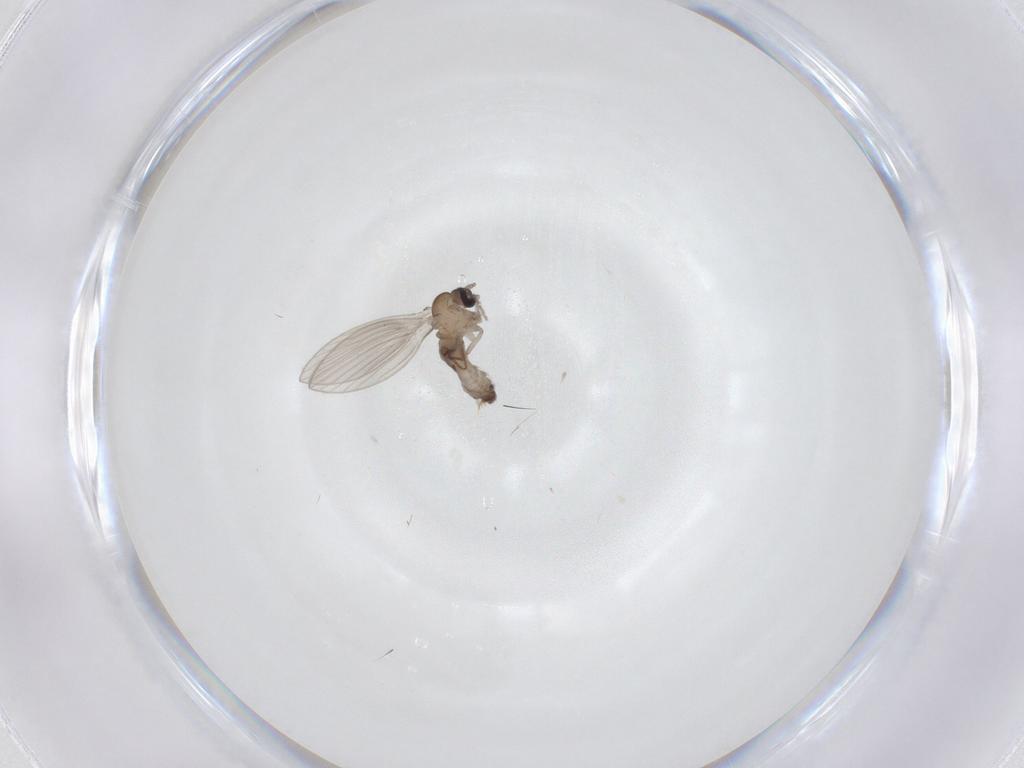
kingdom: Animalia
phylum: Arthropoda
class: Insecta
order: Diptera
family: Psychodidae
